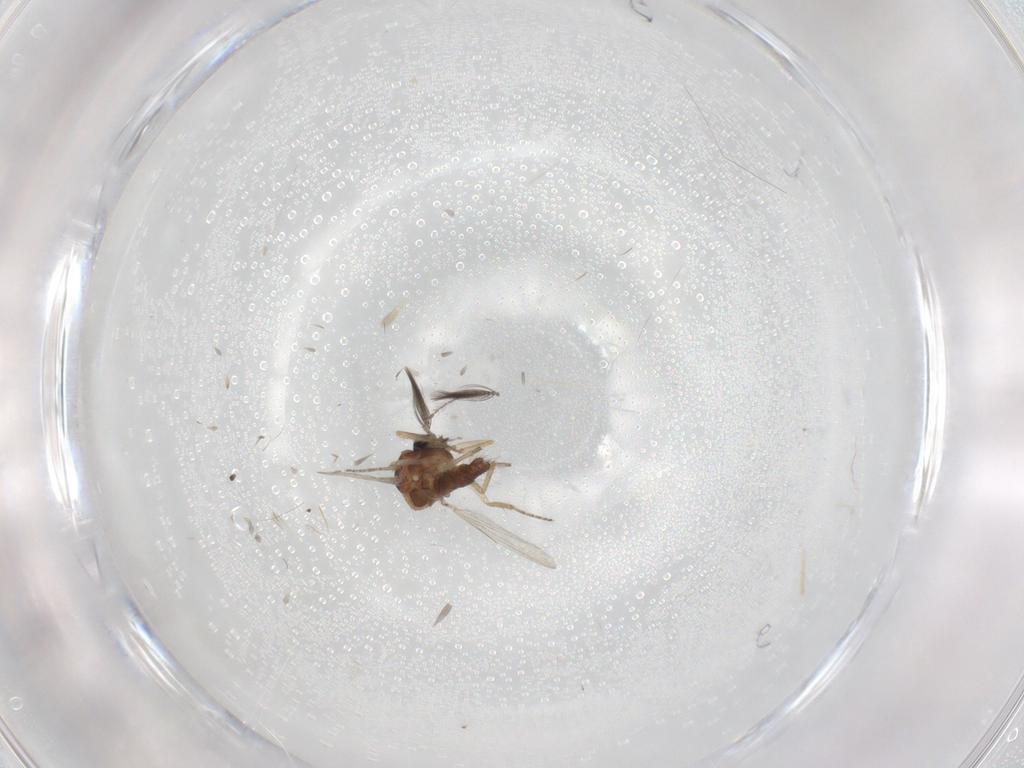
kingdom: Animalia
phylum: Arthropoda
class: Insecta
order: Diptera
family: Ceratopogonidae
